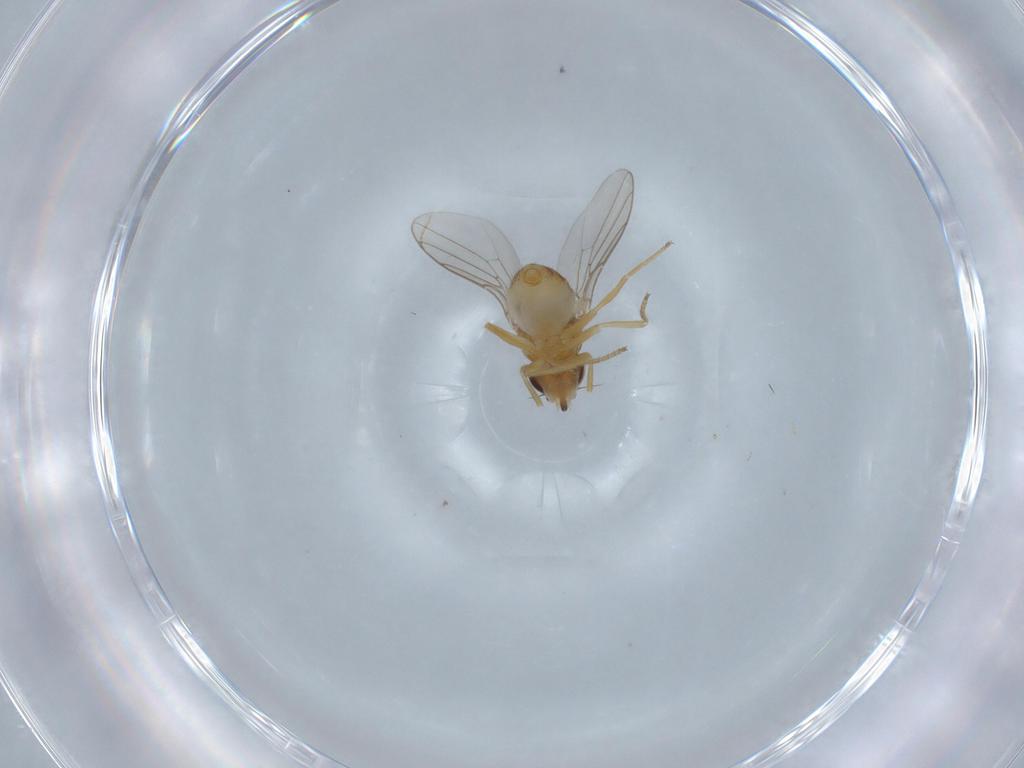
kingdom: Animalia
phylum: Arthropoda
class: Insecta
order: Diptera
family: Chloropidae
